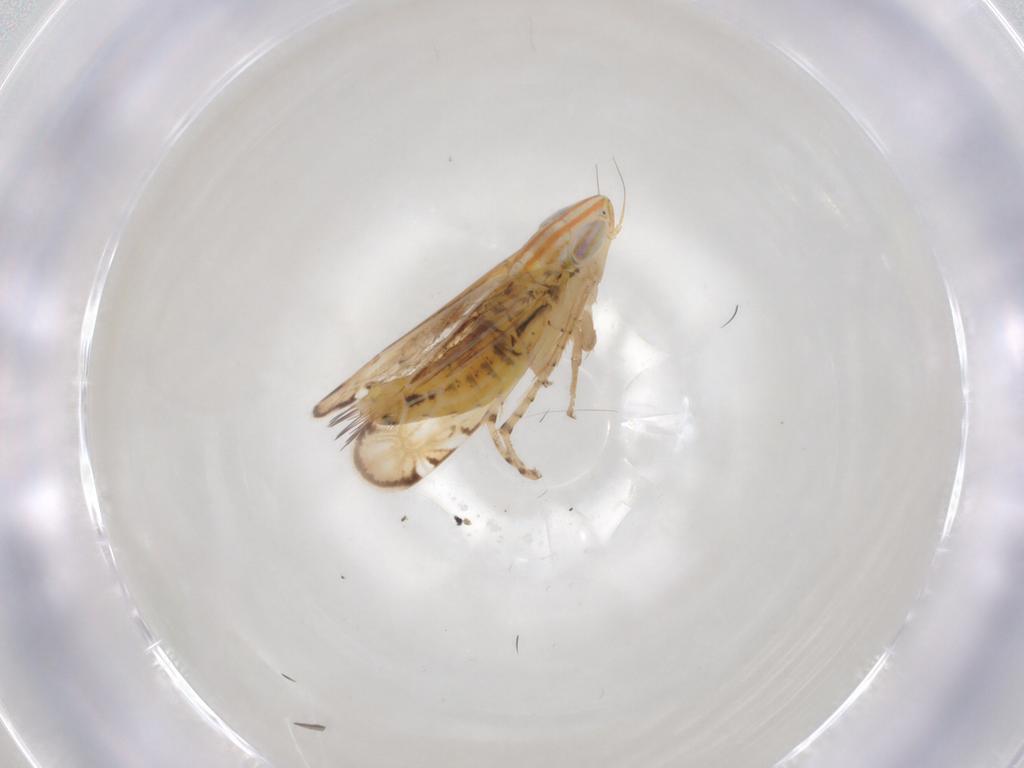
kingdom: Animalia
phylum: Arthropoda
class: Insecta
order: Hemiptera
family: Cicadellidae
